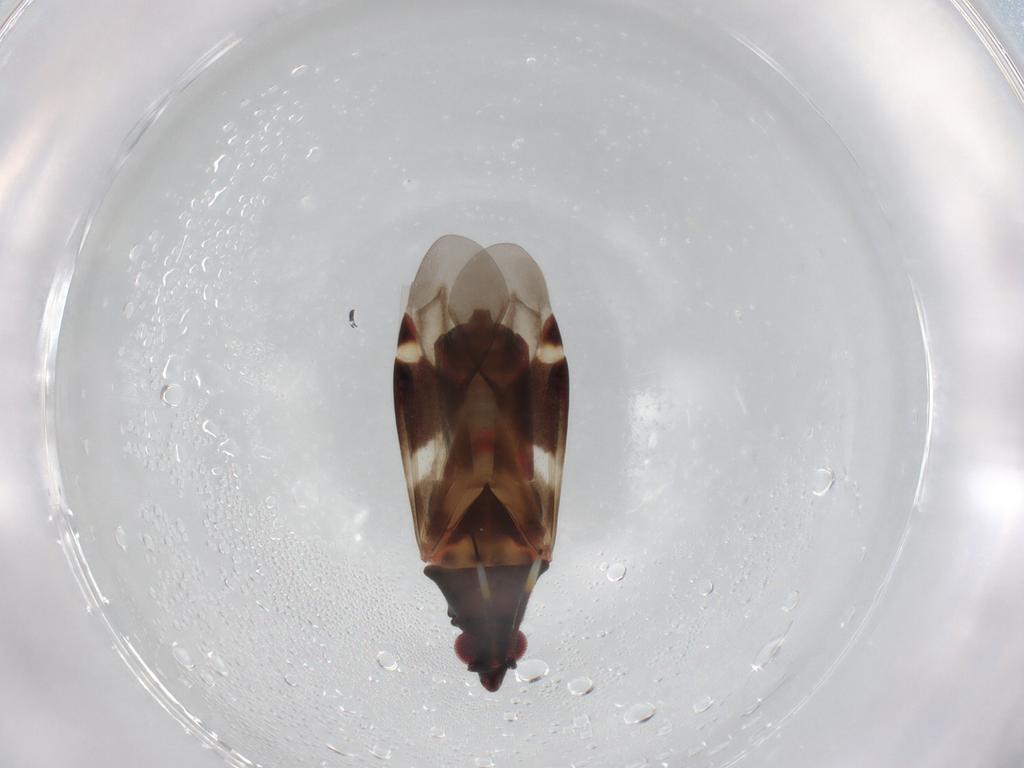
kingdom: Animalia
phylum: Arthropoda
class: Insecta
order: Hemiptera
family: Miridae
